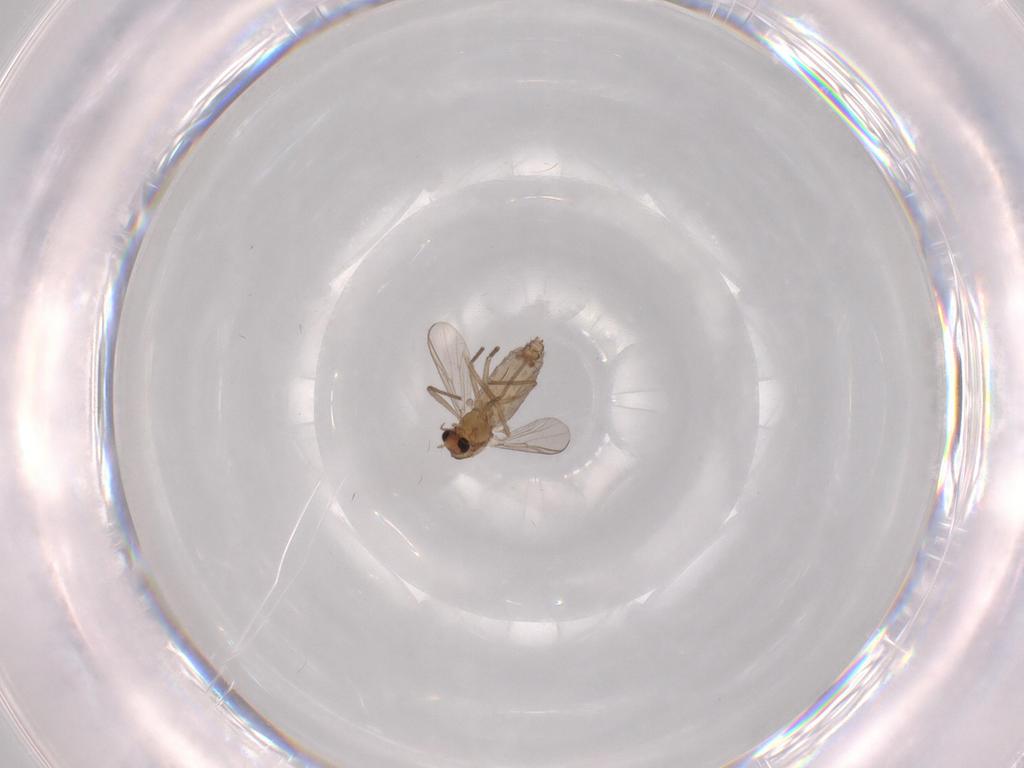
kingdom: Animalia
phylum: Arthropoda
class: Insecta
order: Diptera
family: Chironomidae
